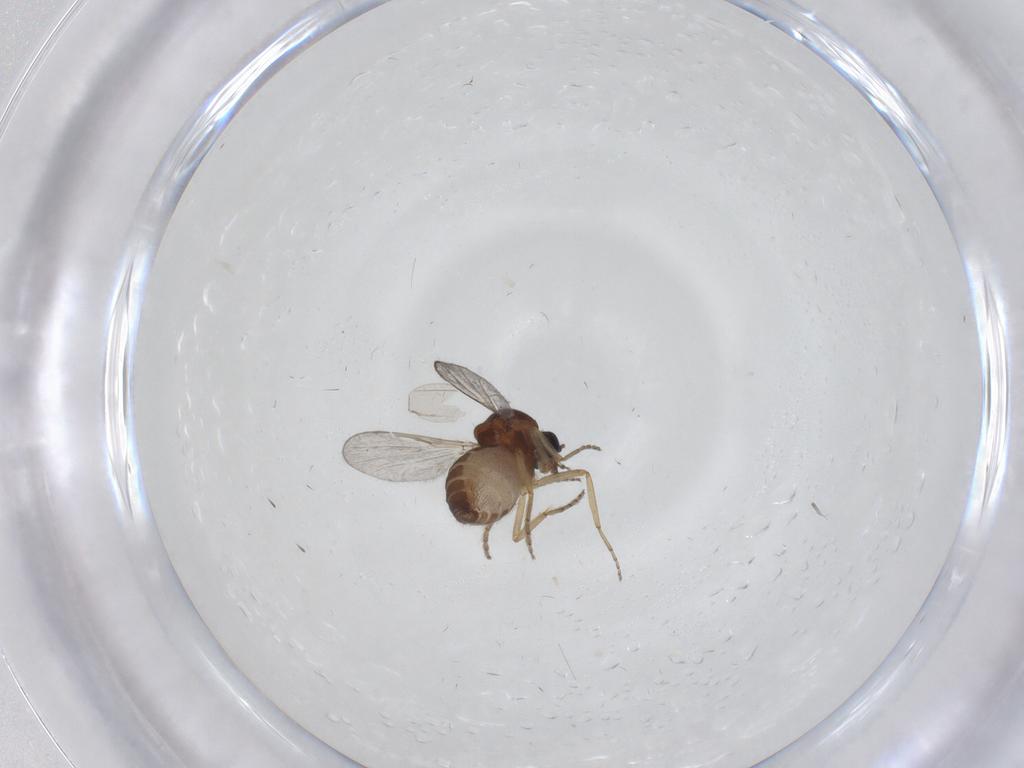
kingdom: Animalia
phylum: Arthropoda
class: Insecta
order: Diptera
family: Ceratopogonidae
